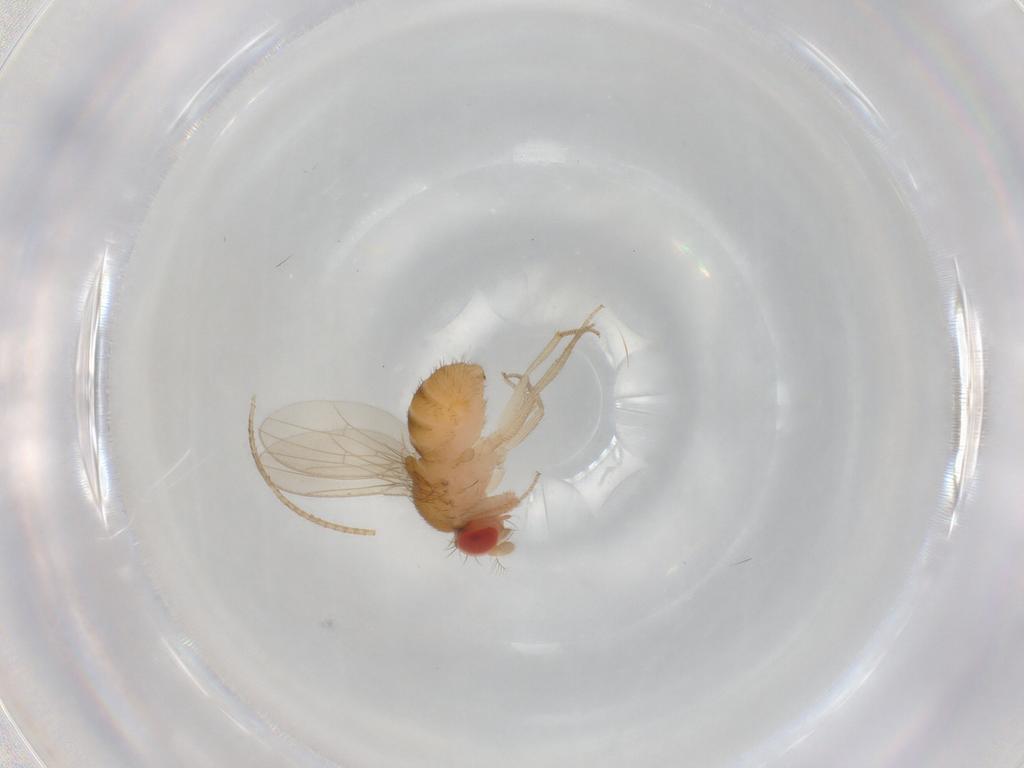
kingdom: Animalia
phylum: Arthropoda
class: Insecta
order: Diptera
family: Drosophilidae
